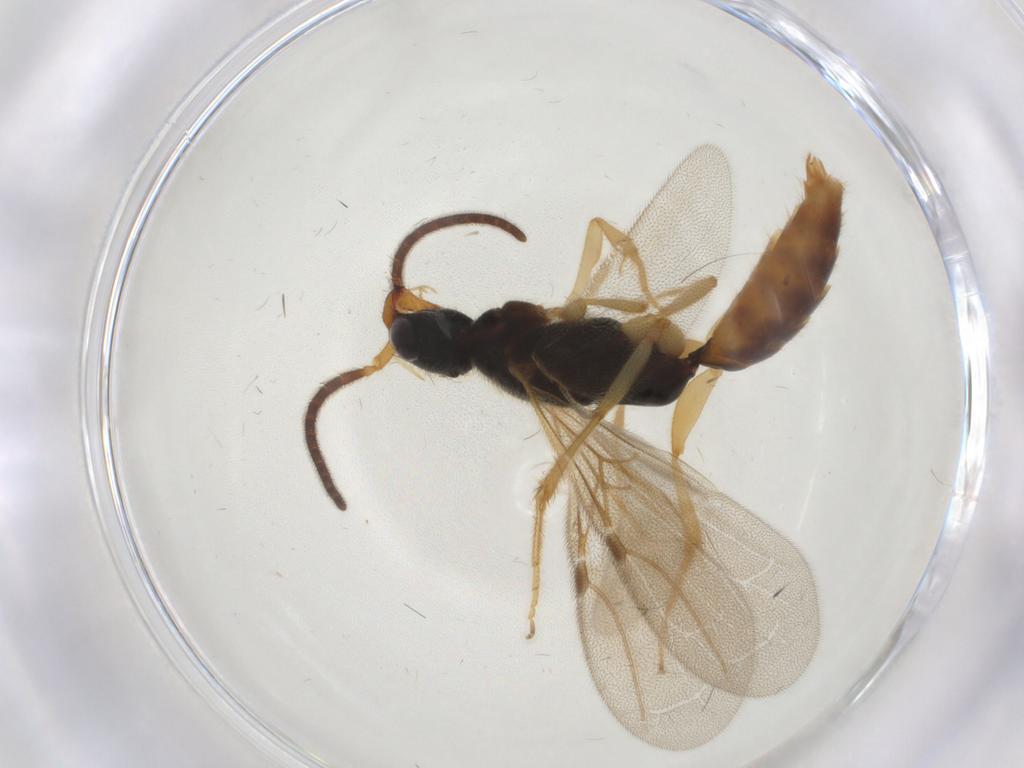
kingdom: Animalia
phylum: Arthropoda
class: Insecta
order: Hymenoptera
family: Bethylidae
